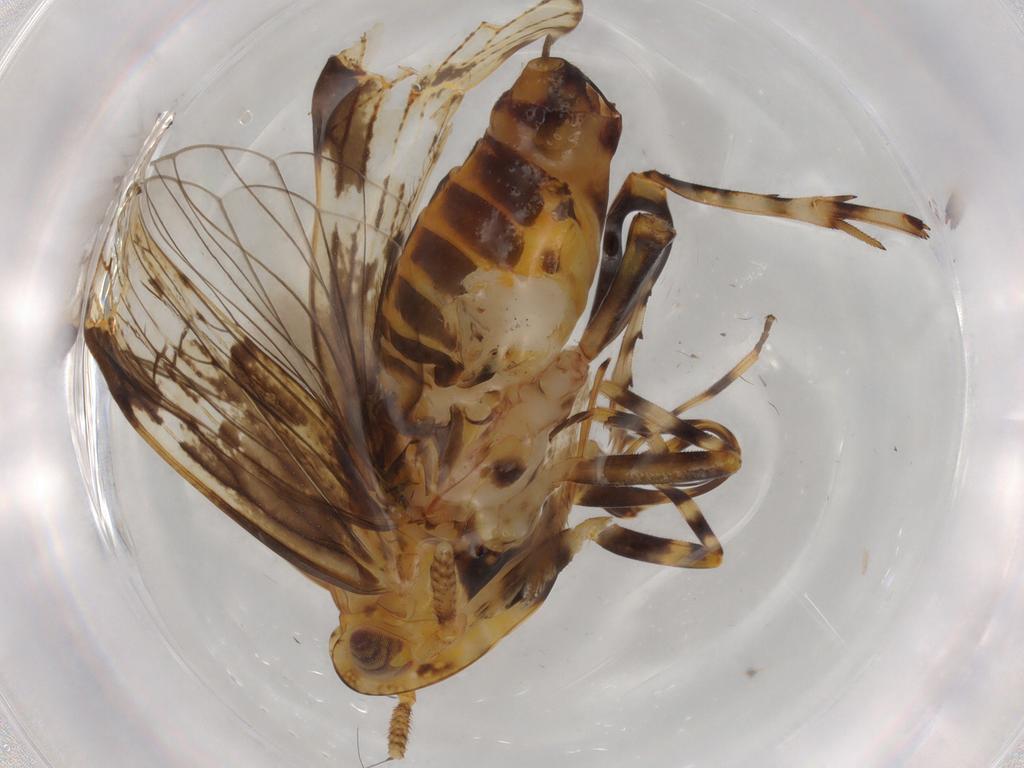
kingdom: Animalia
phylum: Arthropoda
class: Insecta
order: Hemiptera
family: Delphacidae
